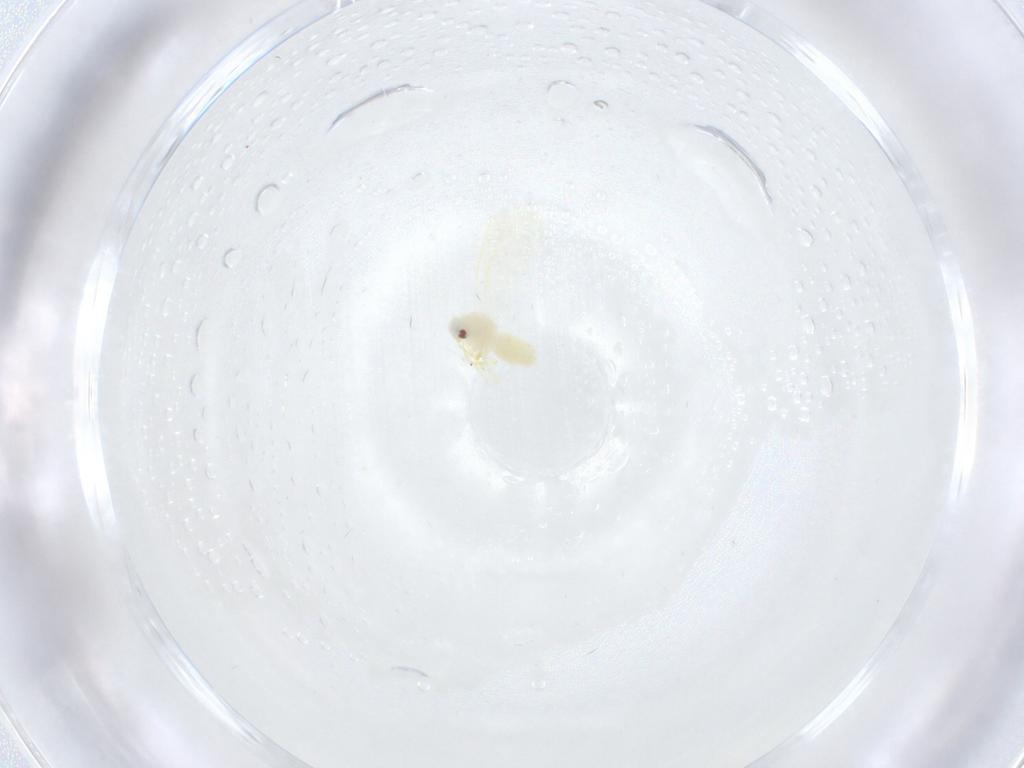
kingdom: Animalia
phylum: Arthropoda
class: Insecta
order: Hemiptera
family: Aleyrodidae
